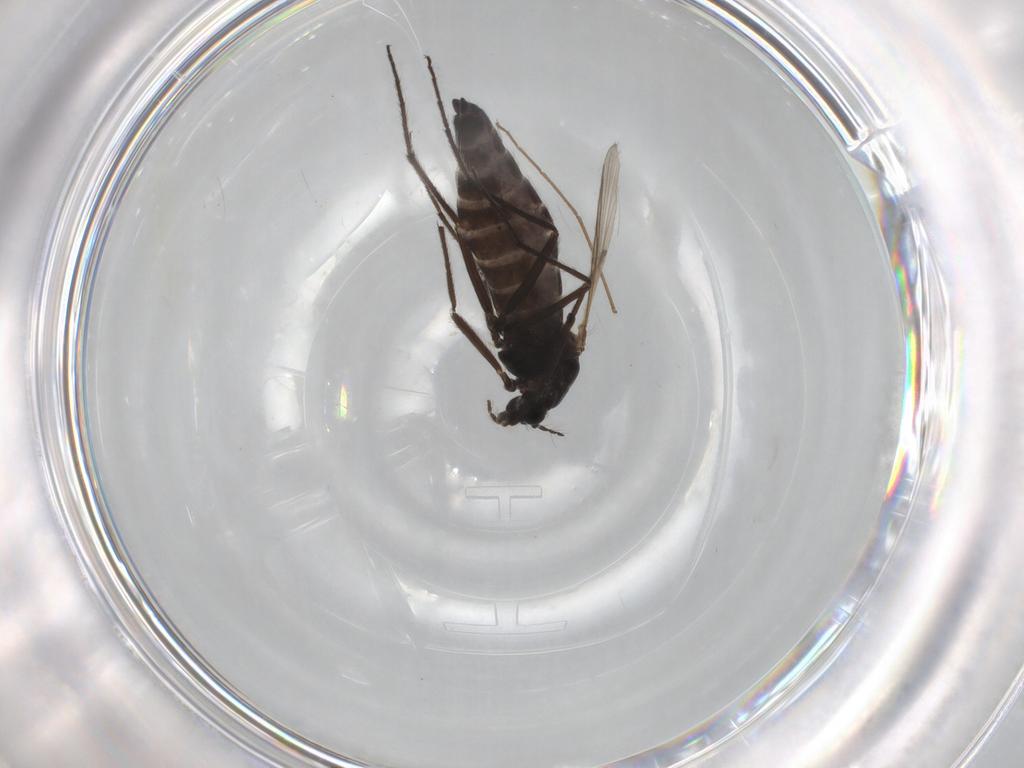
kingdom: Animalia
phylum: Arthropoda
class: Insecta
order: Diptera
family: Chironomidae
